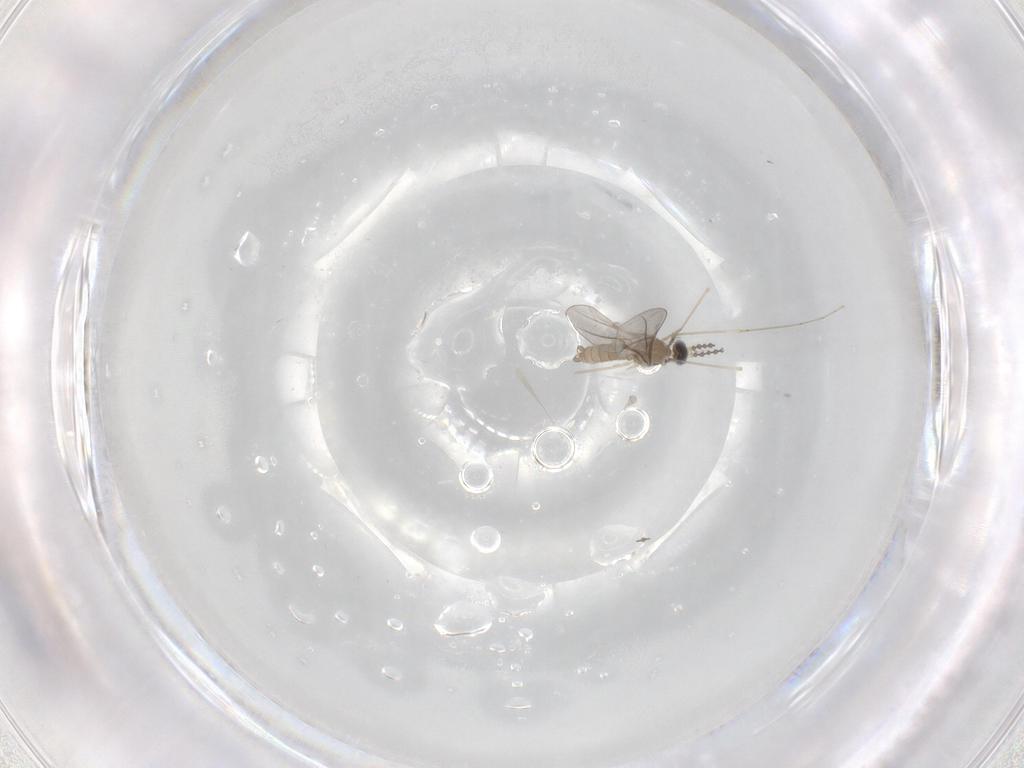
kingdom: Animalia
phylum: Arthropoda
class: Insecta
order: Diptera
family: Cecidomyiidae
